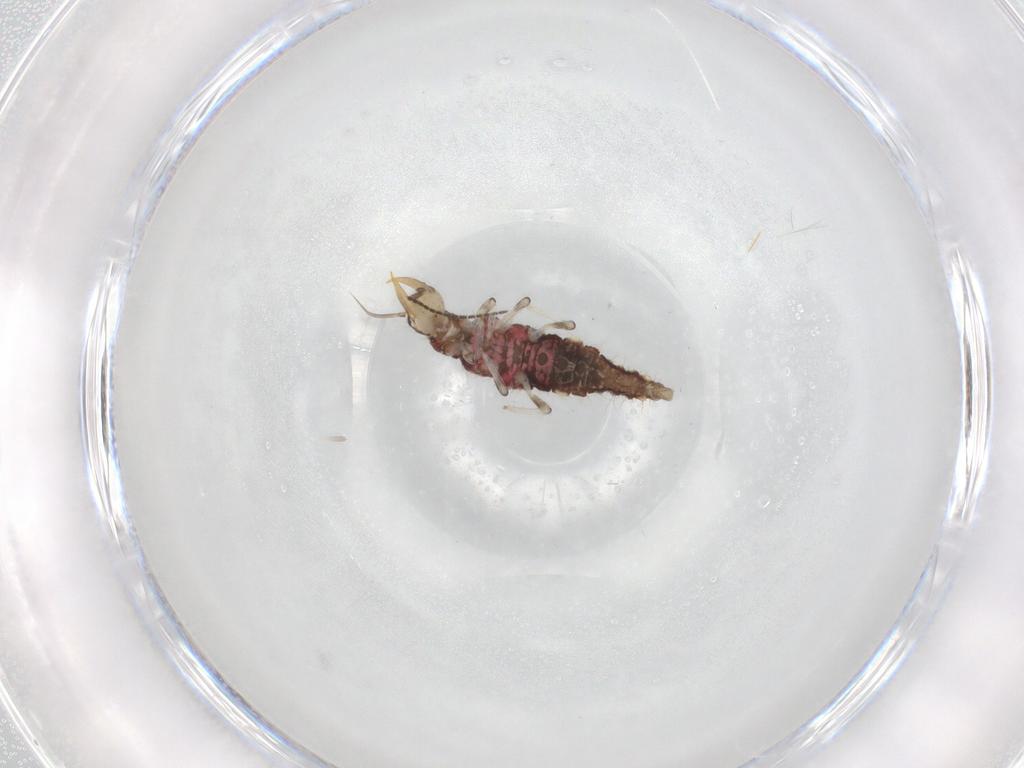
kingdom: Animalia
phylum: Arthropoda
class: Insecta
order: Neuroptera
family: Hemerobiidae
